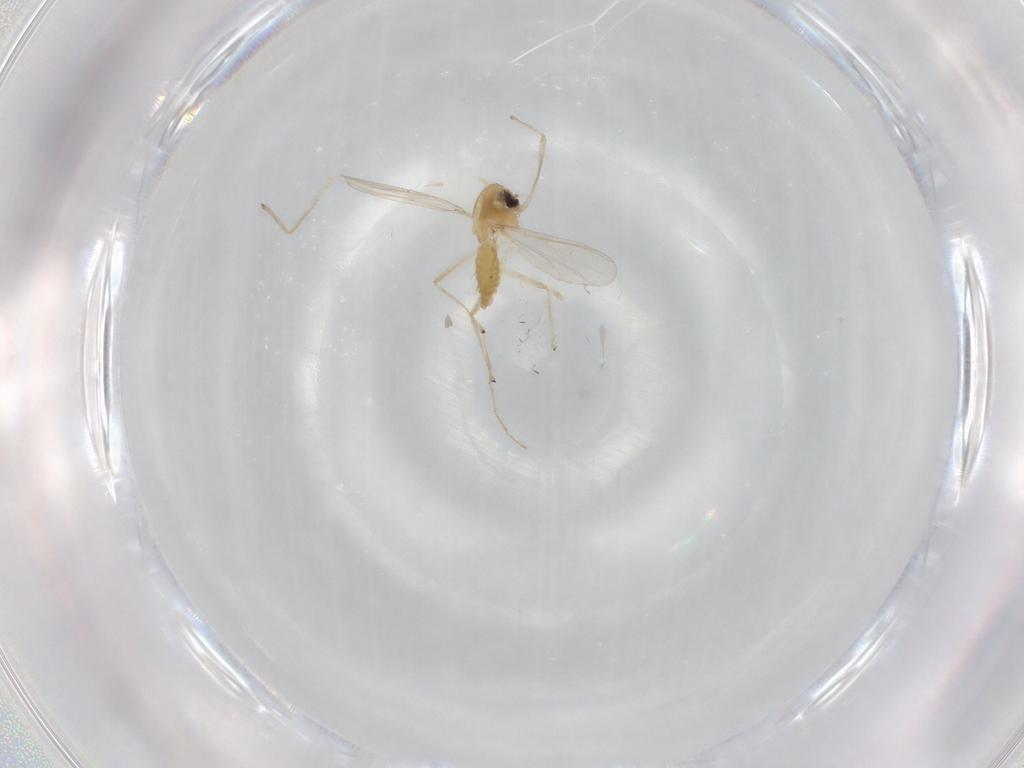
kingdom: Animalia
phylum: Arthropoda
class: Insecta
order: Diptera
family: Chironomidae
